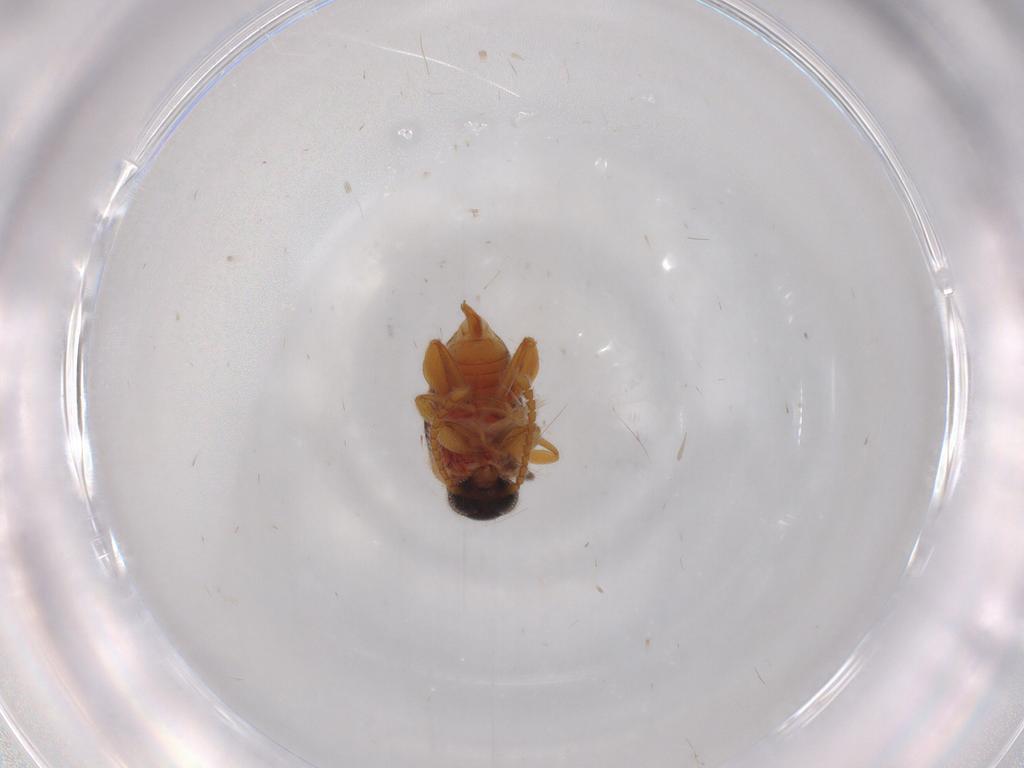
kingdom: Animalia
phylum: Arthropoda
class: Insecta
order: Coleoptera
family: Aderidae
